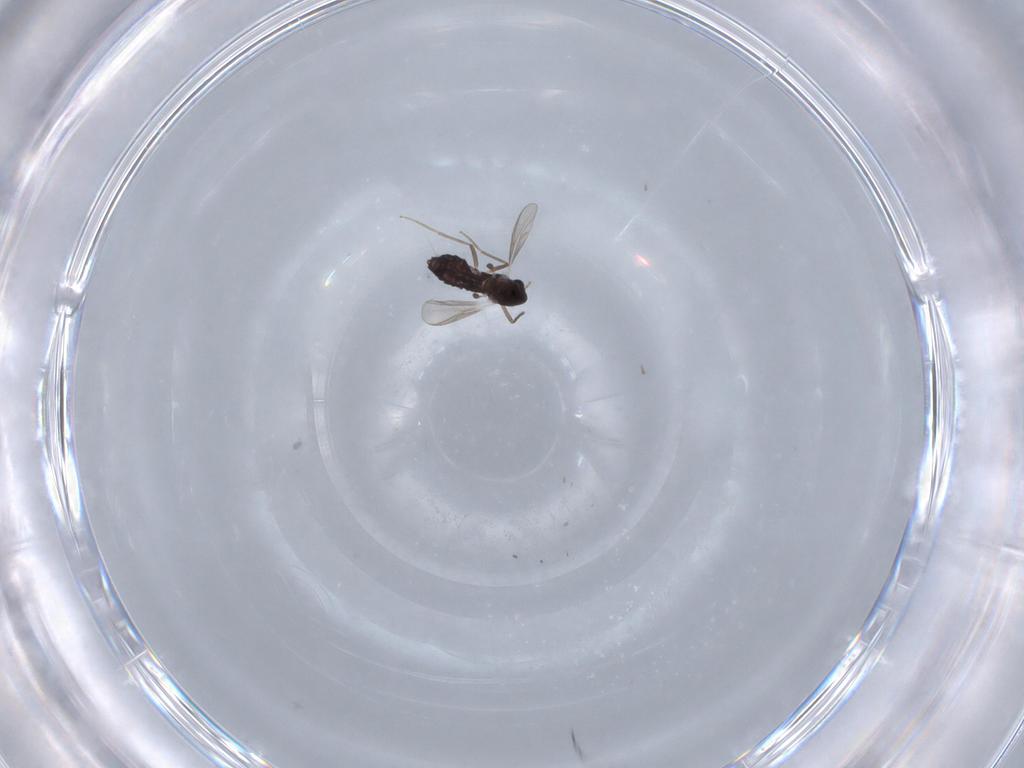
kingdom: Animalia
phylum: Arthropoda
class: Insecta
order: Diptera
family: Chironomidae
